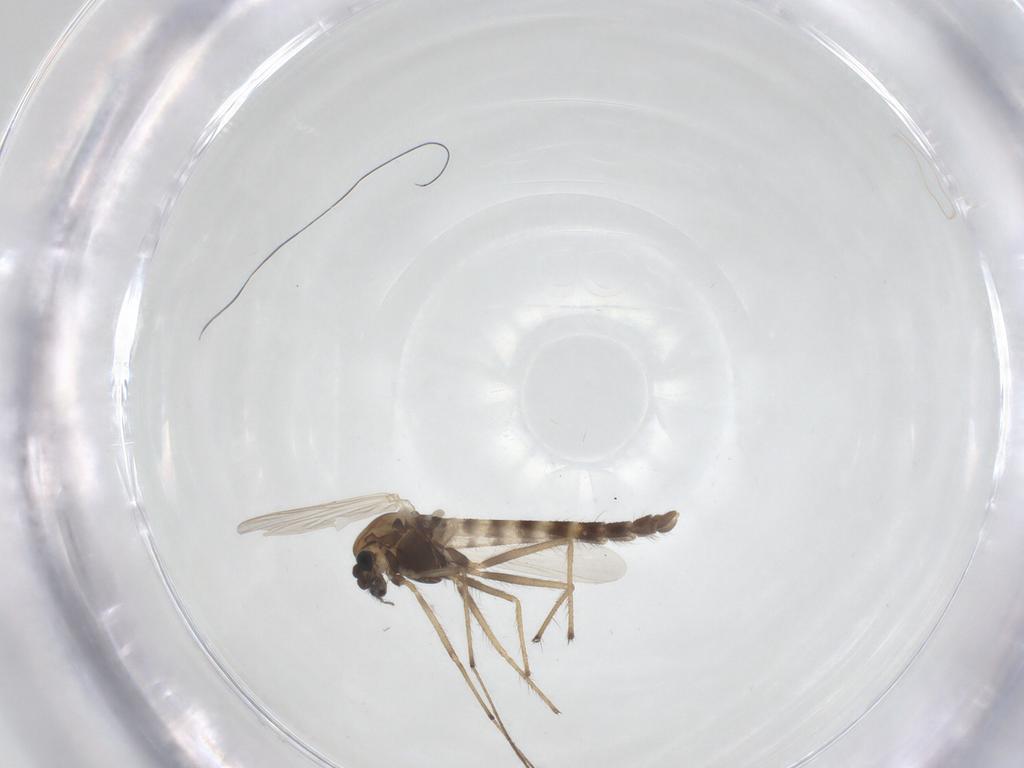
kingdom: Animalia
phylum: Arthropoda
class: Insecta
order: Diptera
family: Chironomidae
